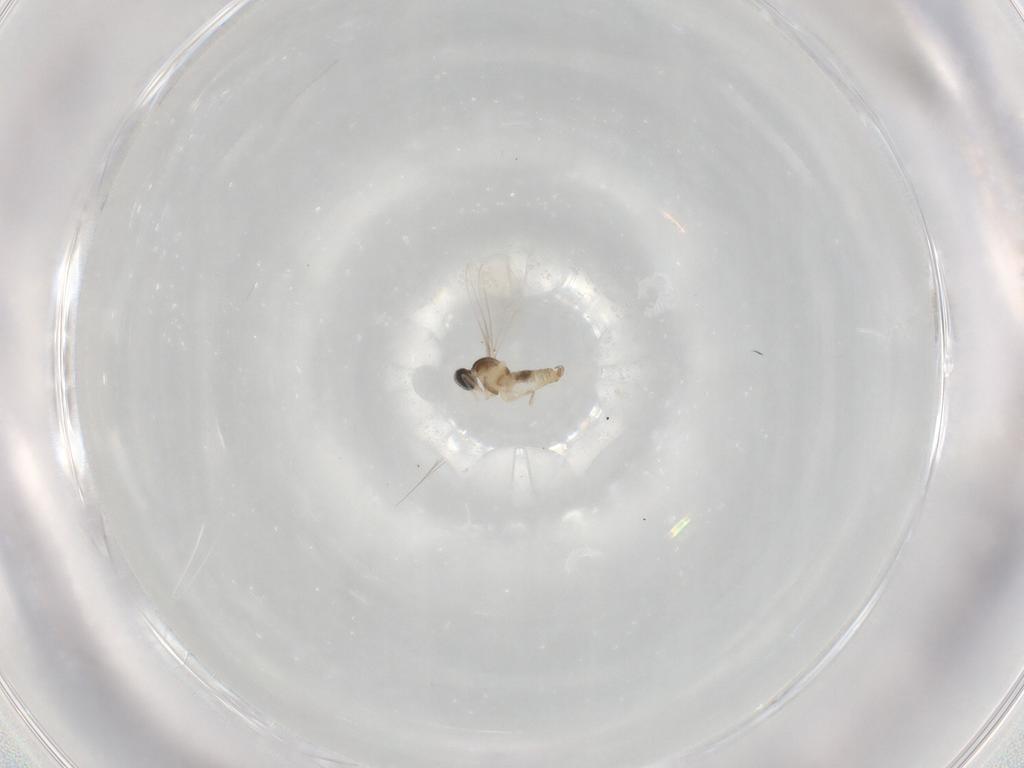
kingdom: Animalia
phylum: Arthropoda
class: Insecta
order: Diptera
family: Cecidomyiidae
